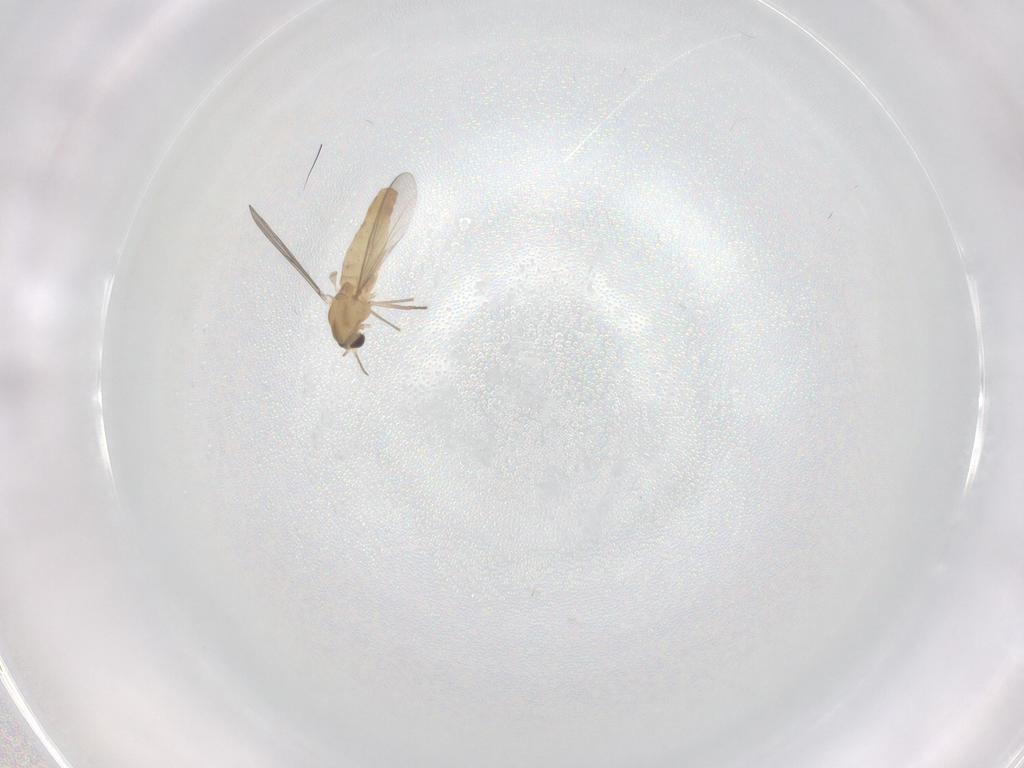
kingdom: Animalia
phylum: Arthropoda
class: Insecta
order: Diptera
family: Chironomidae
